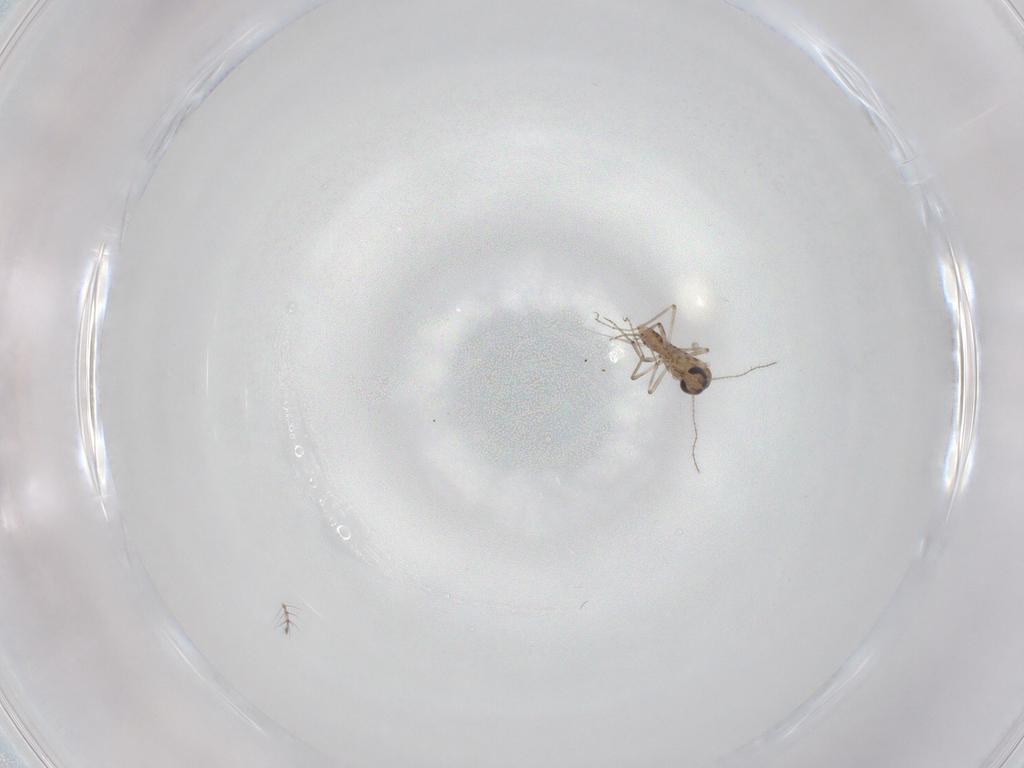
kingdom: Animalia
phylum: Arthropoda
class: Insecta
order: Diptera
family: Ceratopogonidae
